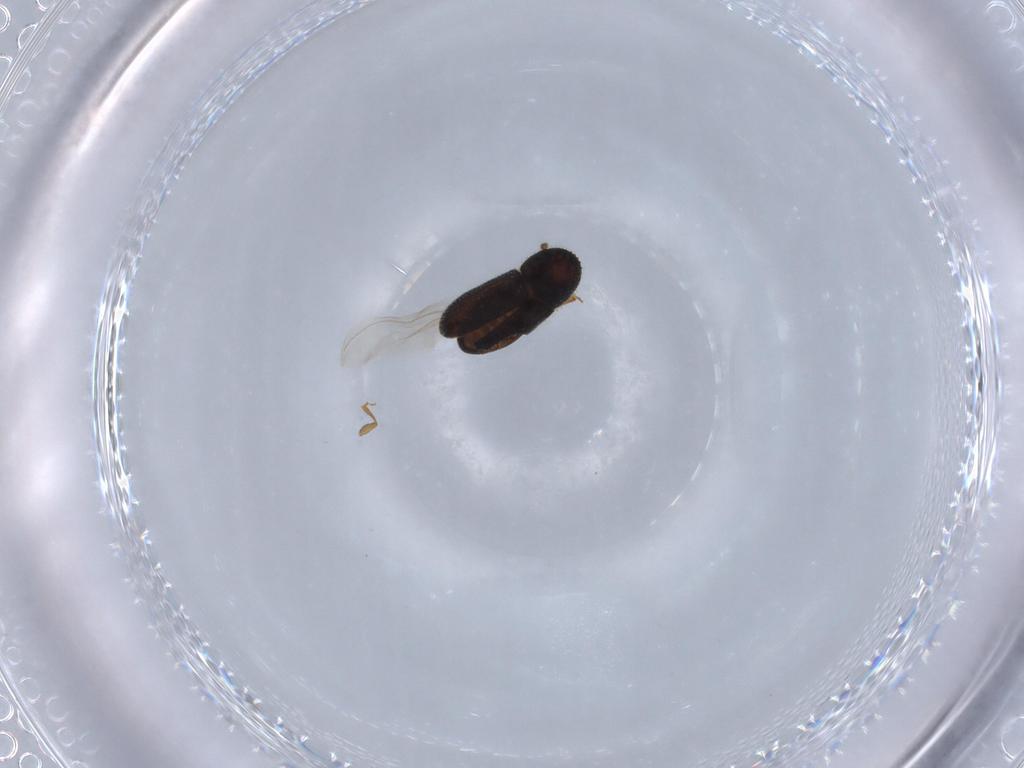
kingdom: Animalia
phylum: Arthropoda
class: Insecta
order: Coleoptera
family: Curculionidae
